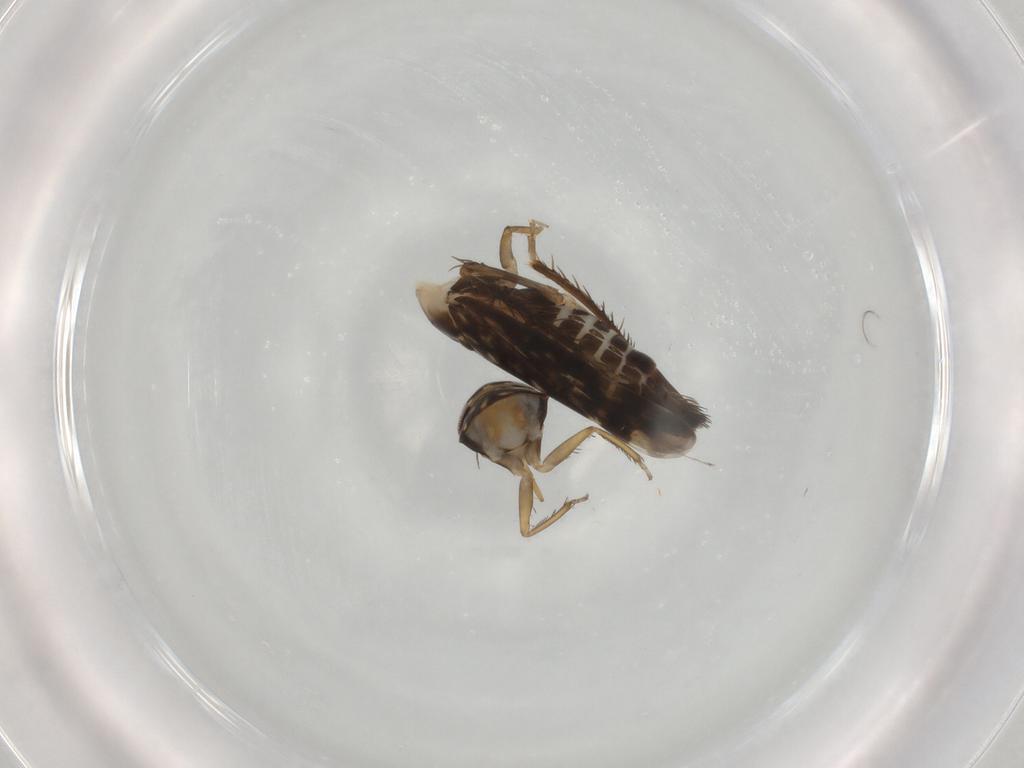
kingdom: Animalia
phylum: Arthropoda
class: Insecta
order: Hemiptera
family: Cicadellidae
